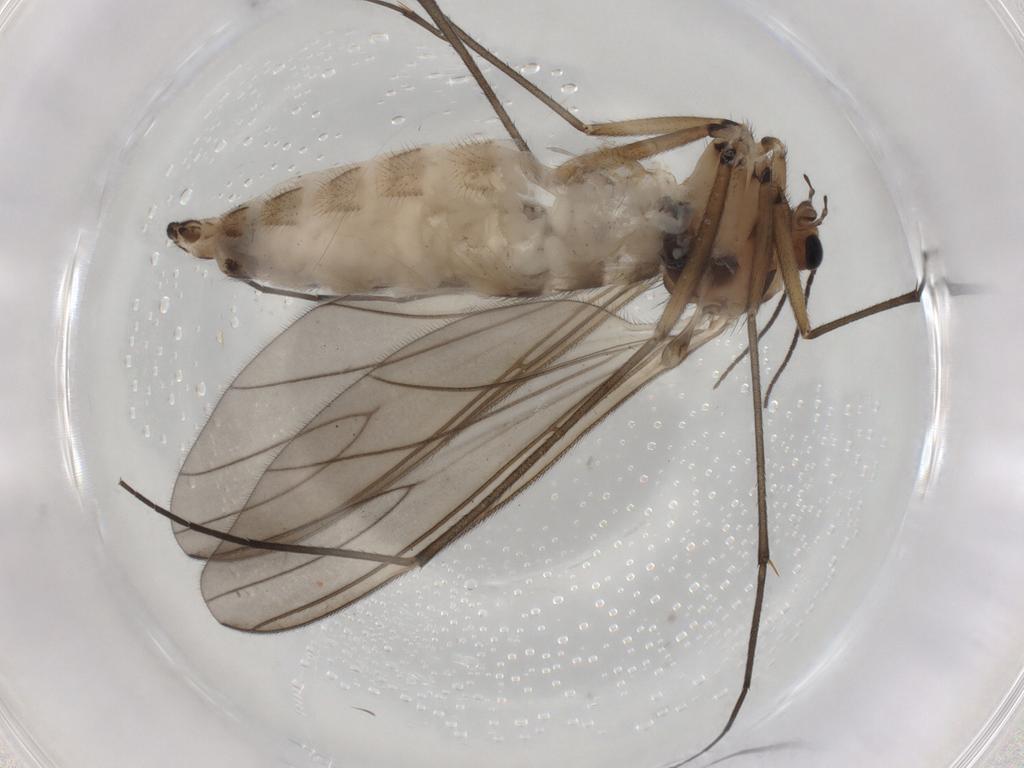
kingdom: Animalia
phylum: Arthropoda
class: Insecta
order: Diptera
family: Sciaridae
